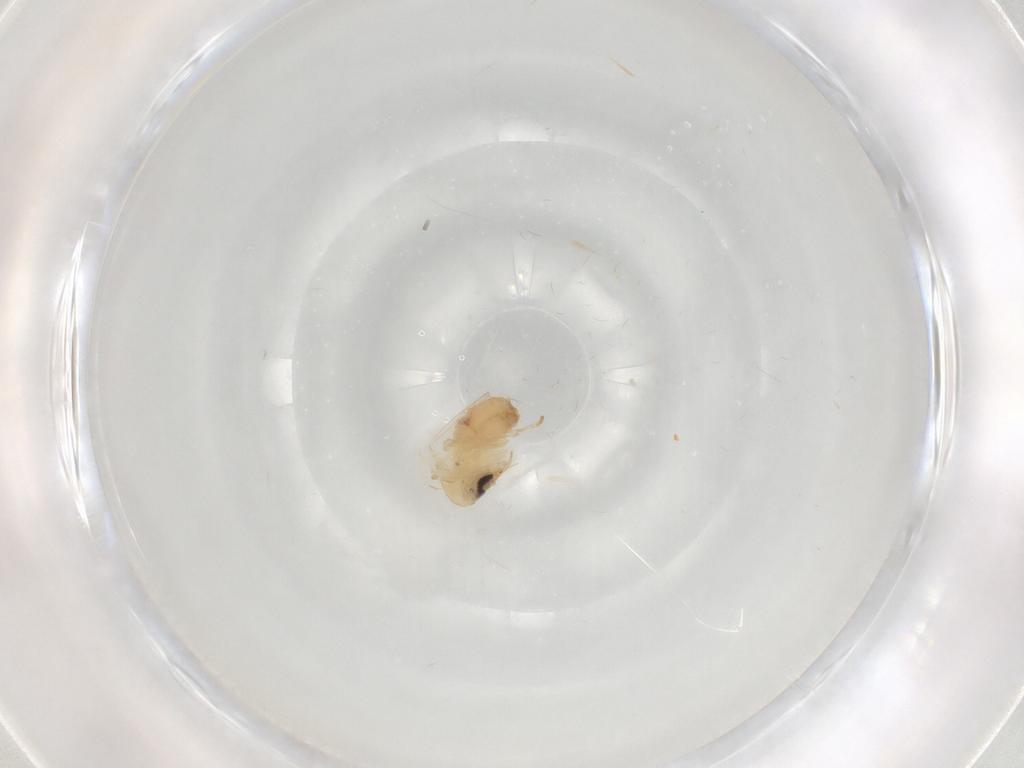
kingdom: Animalia
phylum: Arthropoda
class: Insecta
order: Diptera
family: Psychodidae
